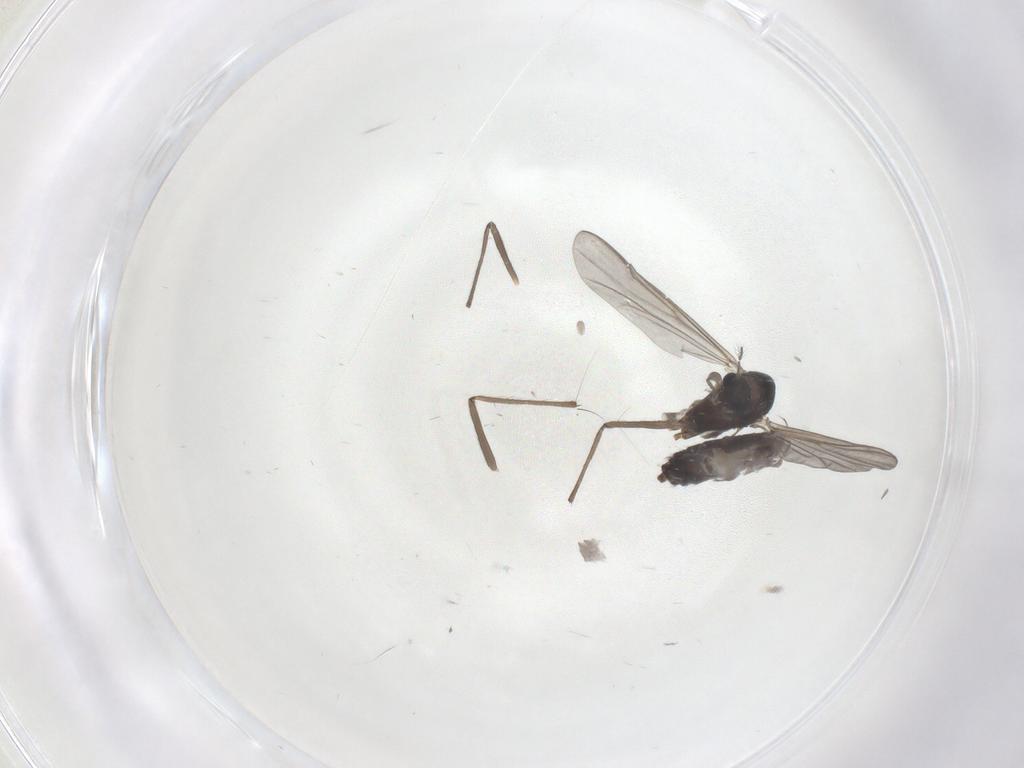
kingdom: Animalia
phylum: Arthropoda
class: Insecta
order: Diptera
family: Chironomidae
